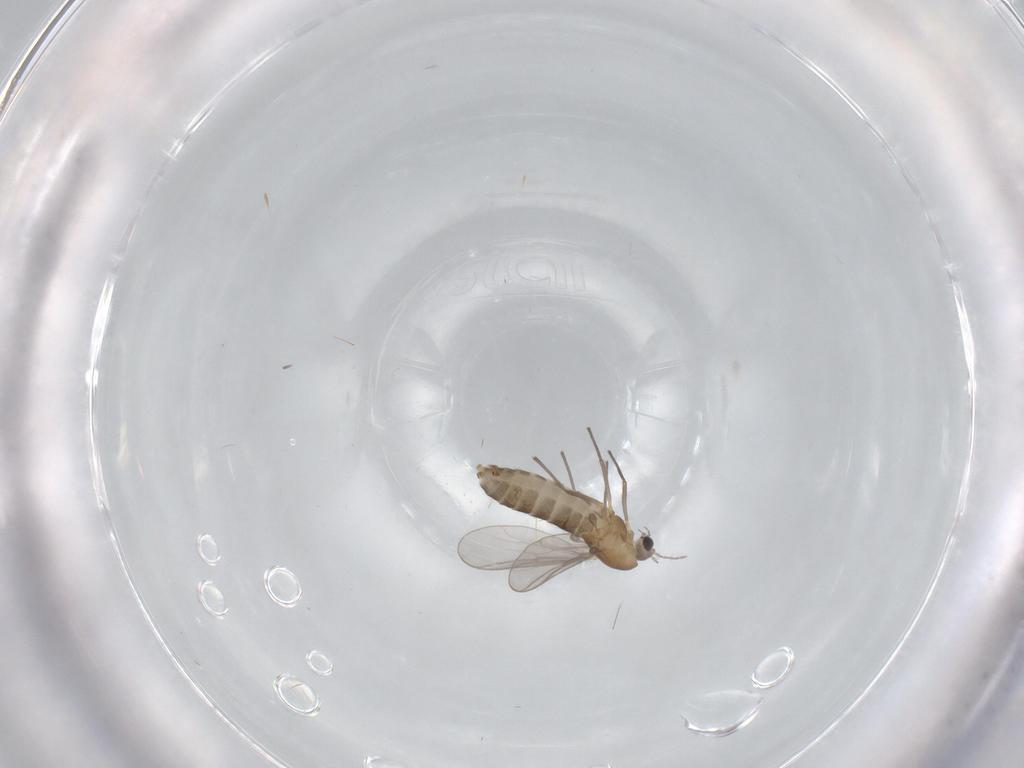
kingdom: Animalia
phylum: Arthropoda
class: Insecta
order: Diptera
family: Chironomidae
